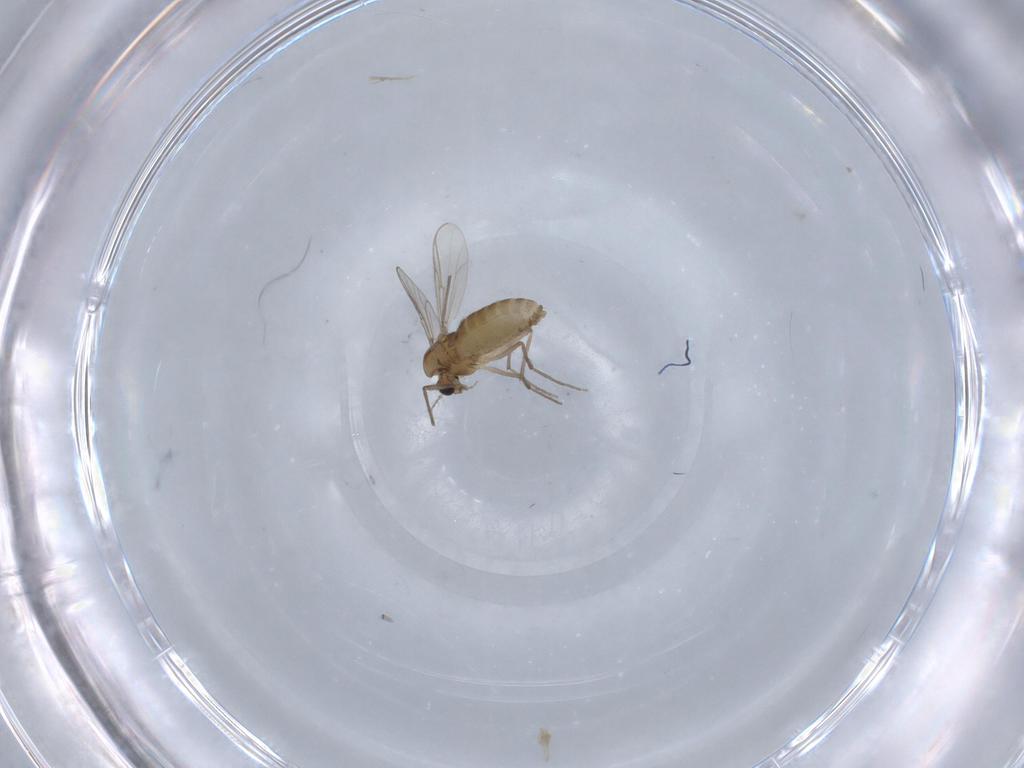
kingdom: Animalia
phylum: Arthropoda
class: Insecta
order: Diptera
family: Chironomidae
